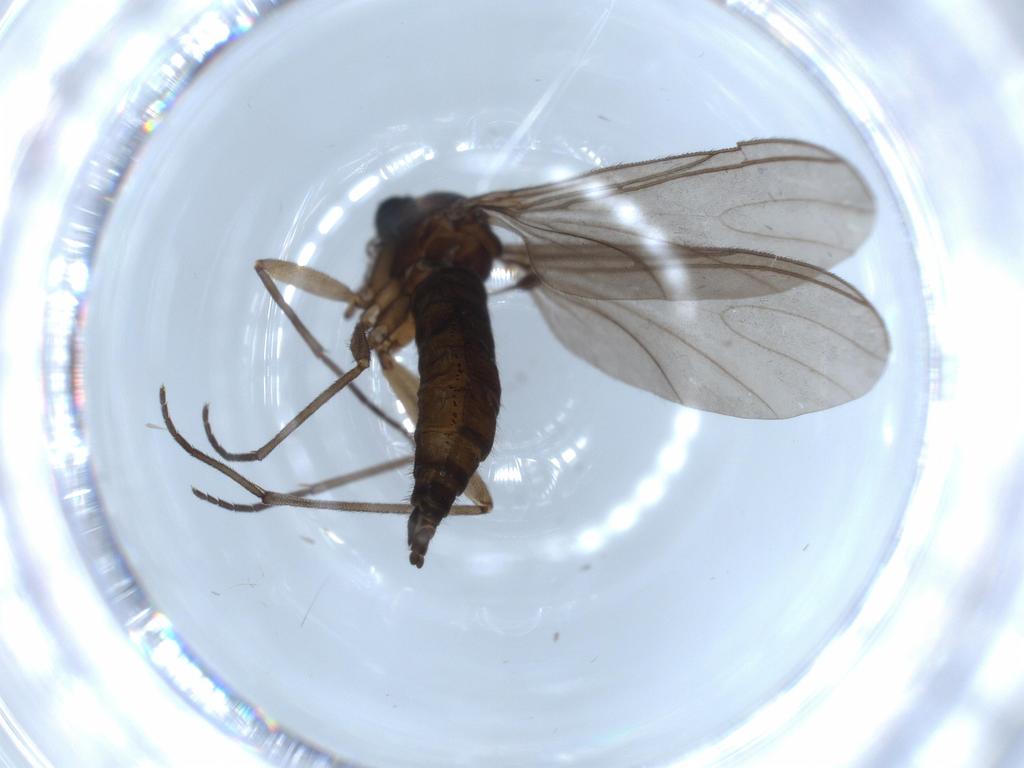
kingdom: Animalia
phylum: Arthropoda
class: Insecta
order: Diptera
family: Sciaridae
